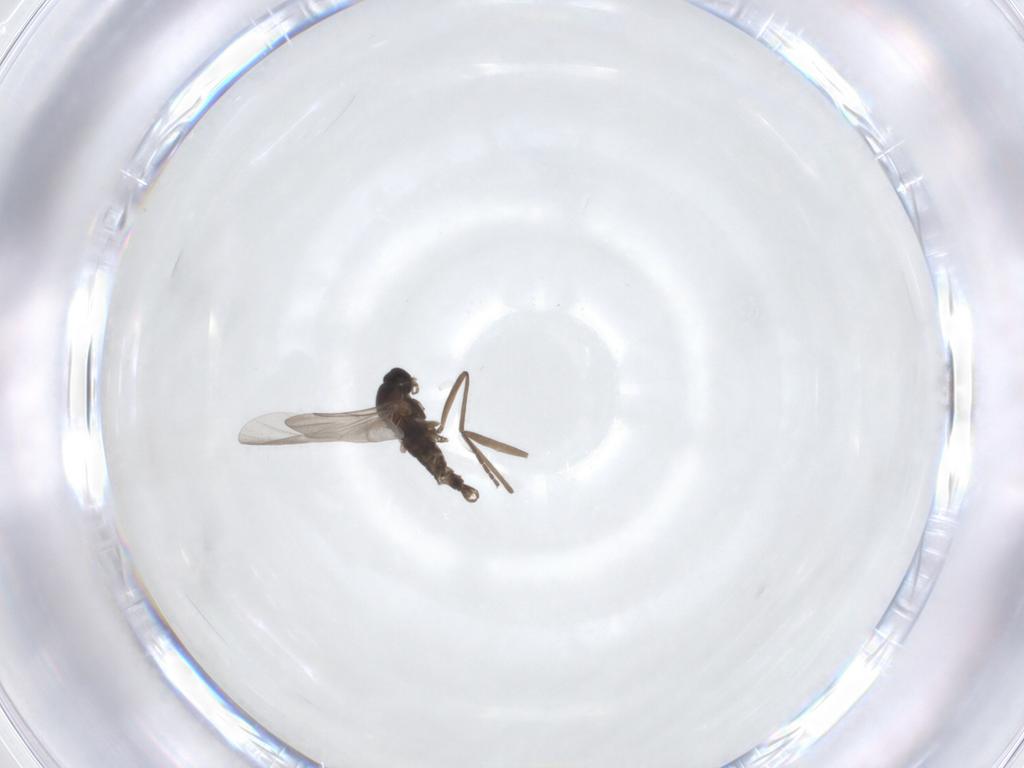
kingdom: Animalia
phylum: Arthropoda
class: Insecta
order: Diptera
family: Cecidomyiidae
